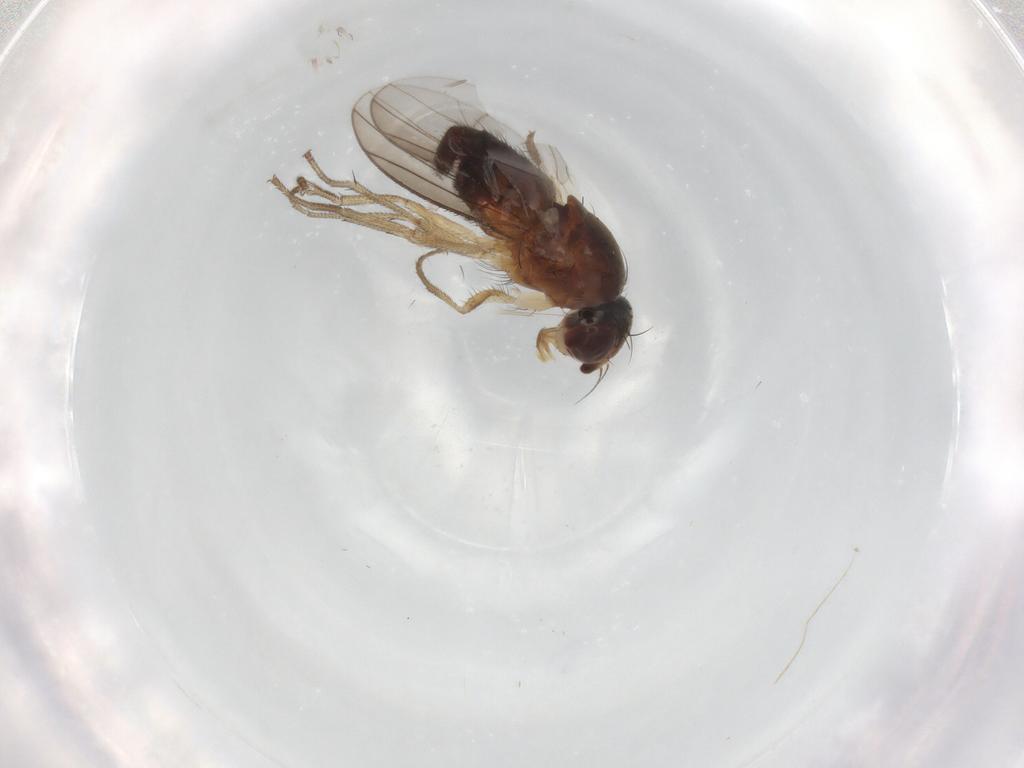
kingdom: Animalia
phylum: Arthropoda
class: Insecta
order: Diptera
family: Heleomyzidae
